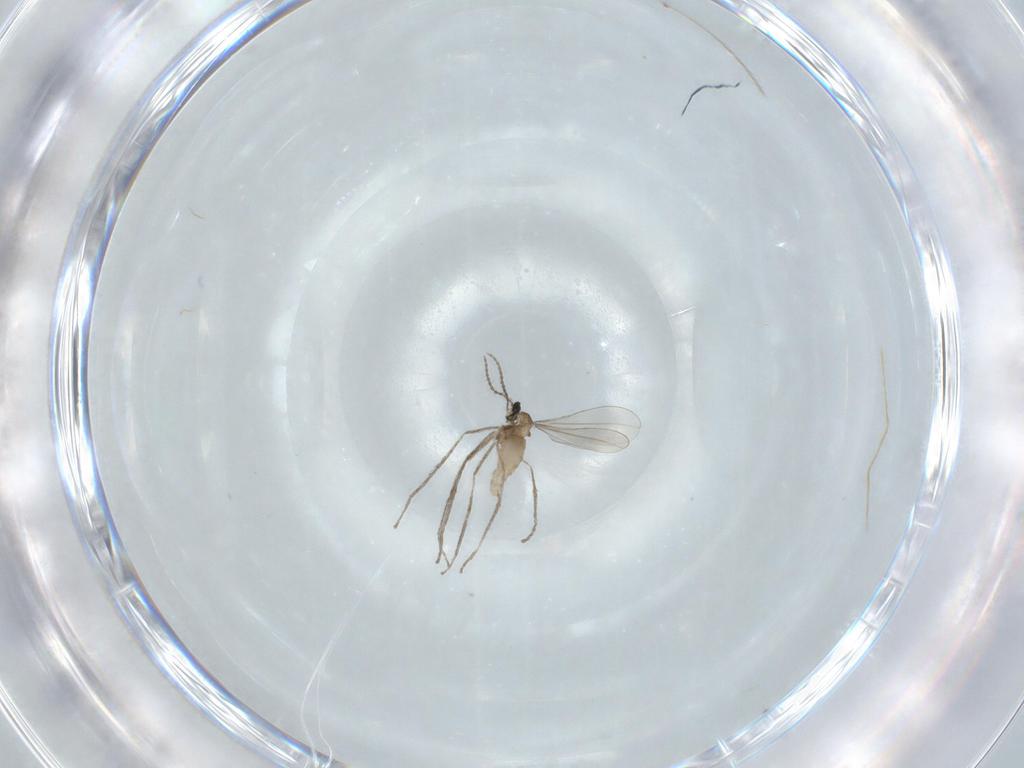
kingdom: Animalia
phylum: Arthropoda
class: Insecta
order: Diptera
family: Cecidomyiidae
